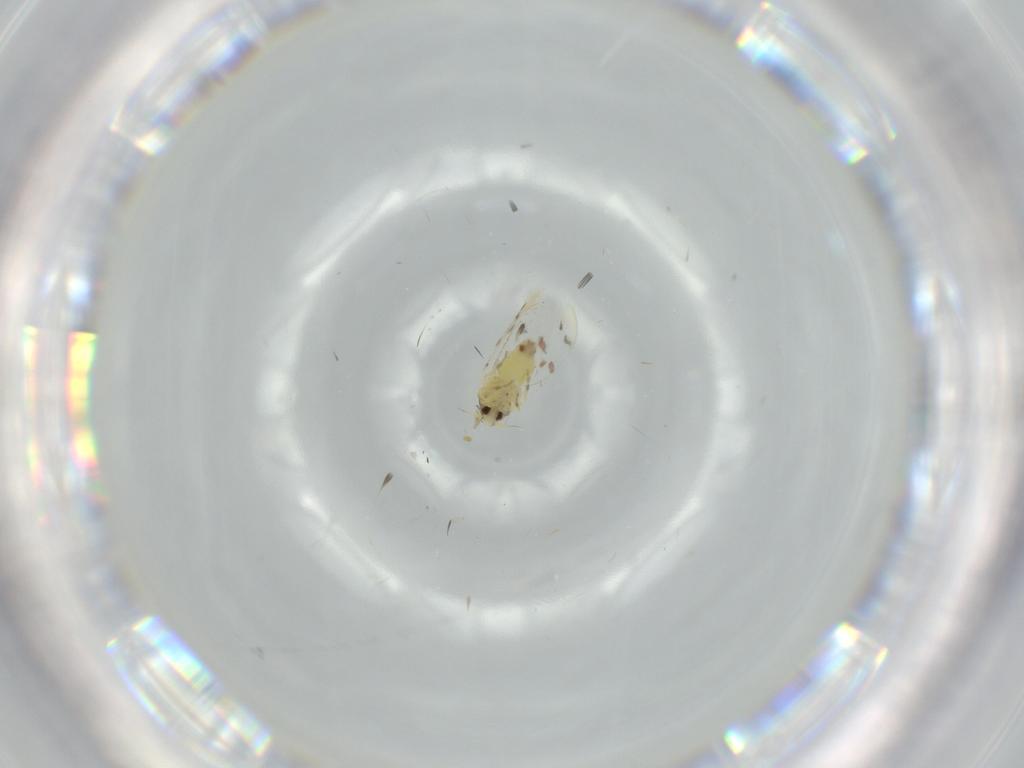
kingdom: Animalia
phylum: Arthropoda
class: Insecta
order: Hemiptera
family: Aleyrodidae
